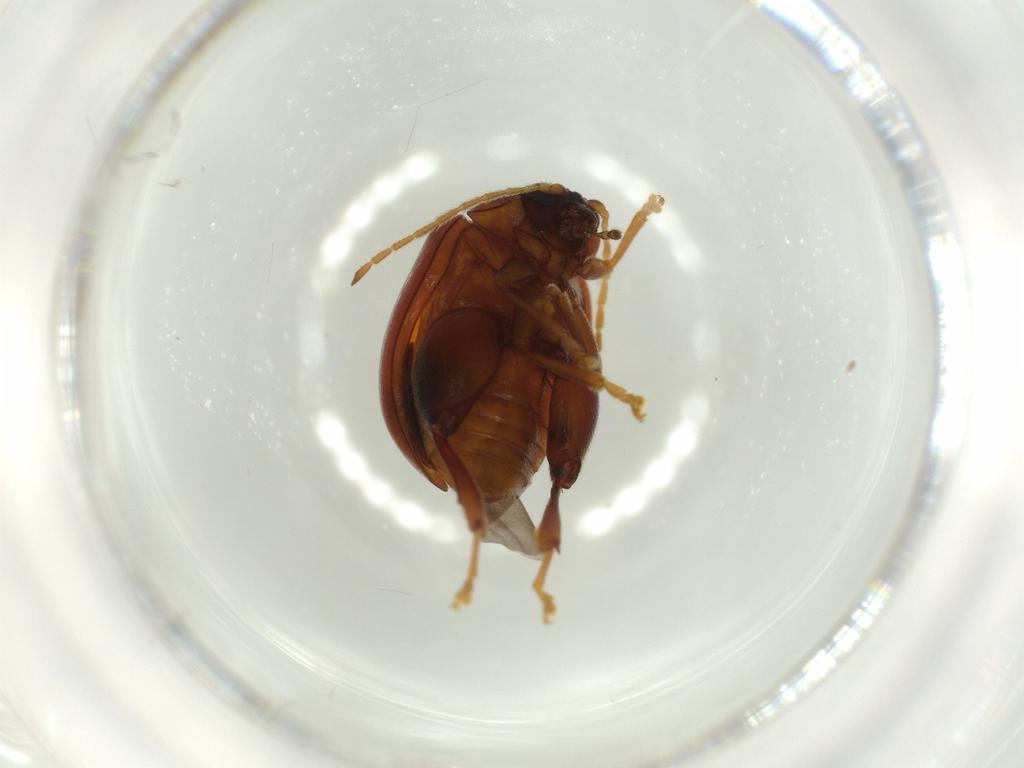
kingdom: Animalia
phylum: Arthropoda
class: Insecta
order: Coleoptera
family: Chrysomelidae
